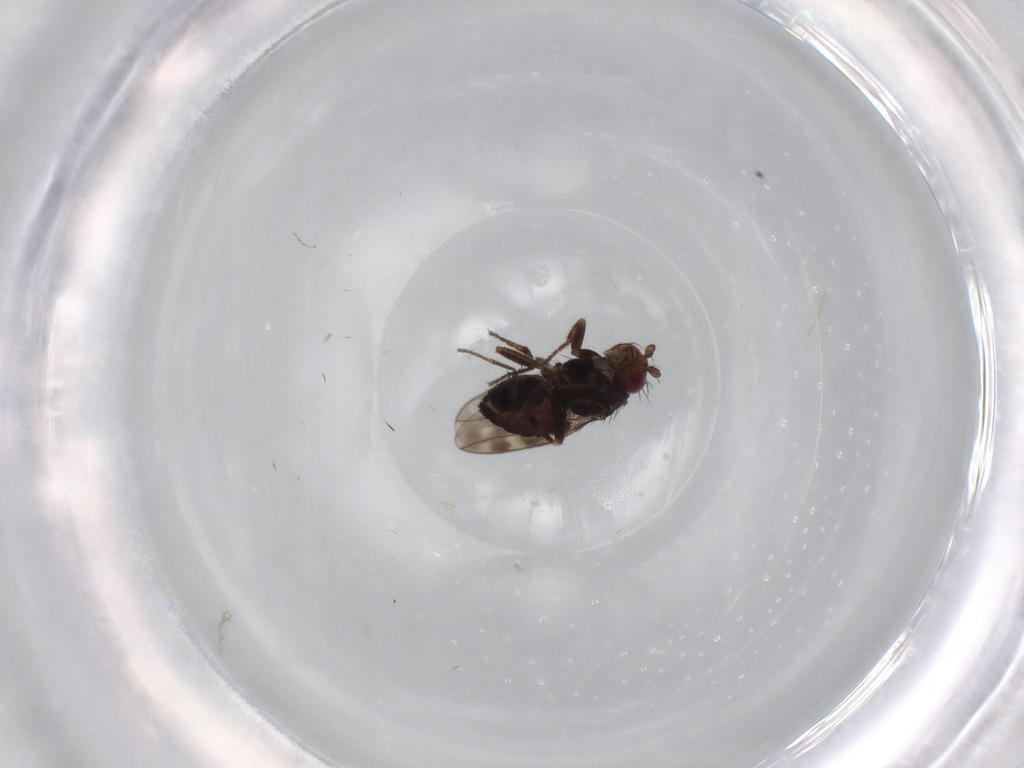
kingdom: Animalia
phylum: Arthropoda
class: Insecta
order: Diptera
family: Sphaeroceridae
